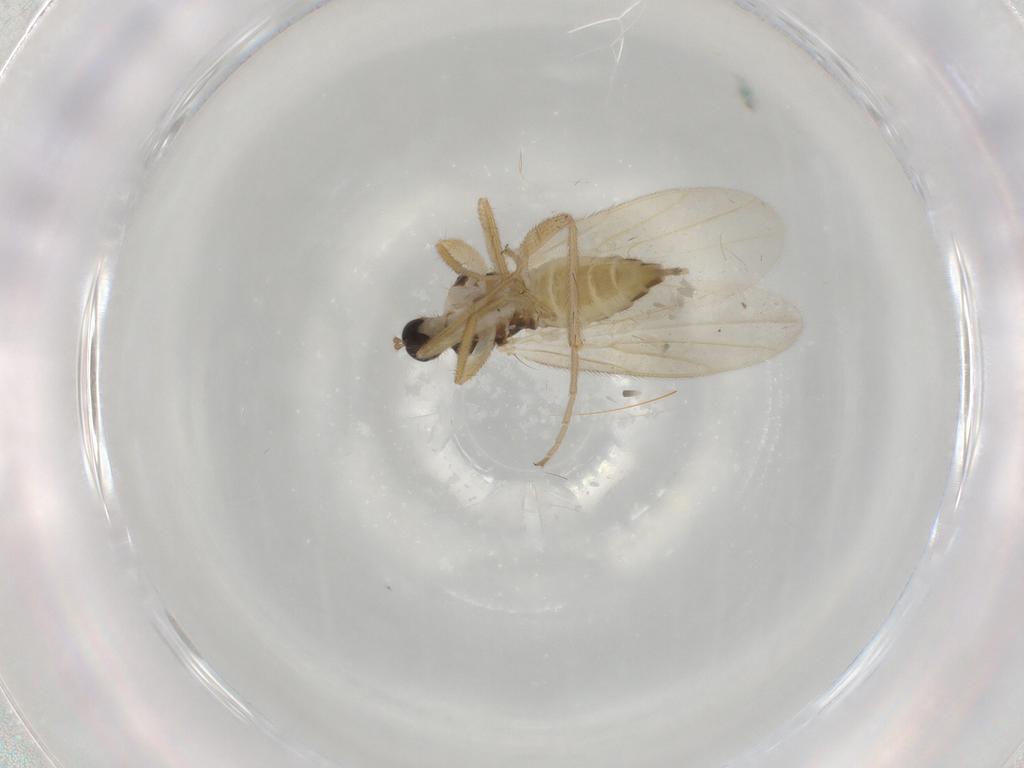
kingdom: Animalia
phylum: Arthropoda
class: Insecta
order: Diptera
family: Hybotidae
